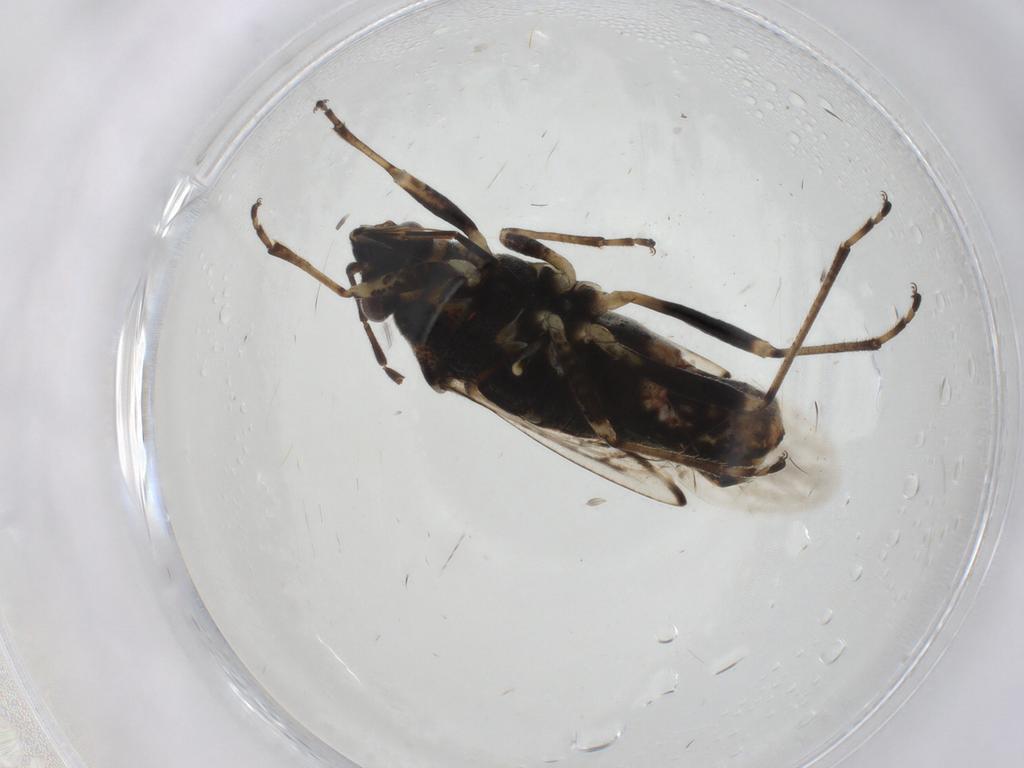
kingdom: Animalia
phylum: Arthropoda
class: Insecta
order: Hemiptera
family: Lygaeidae
